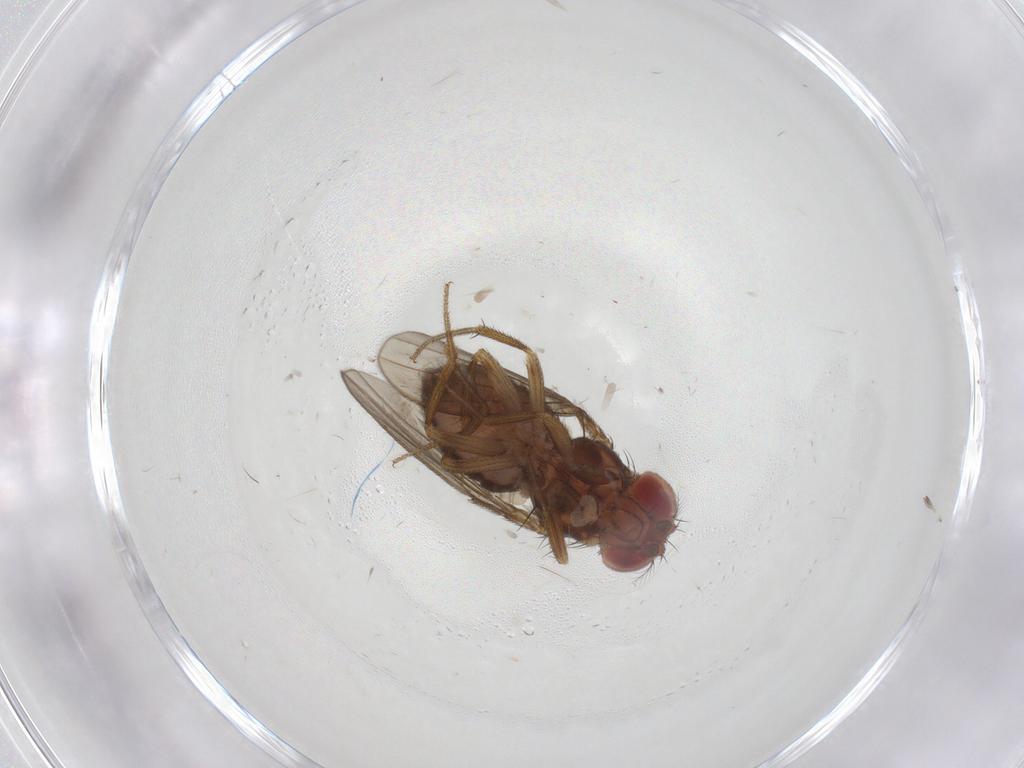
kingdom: Animalia
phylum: Arthropoda
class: Insecta
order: Diptera
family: Drosophilidae
